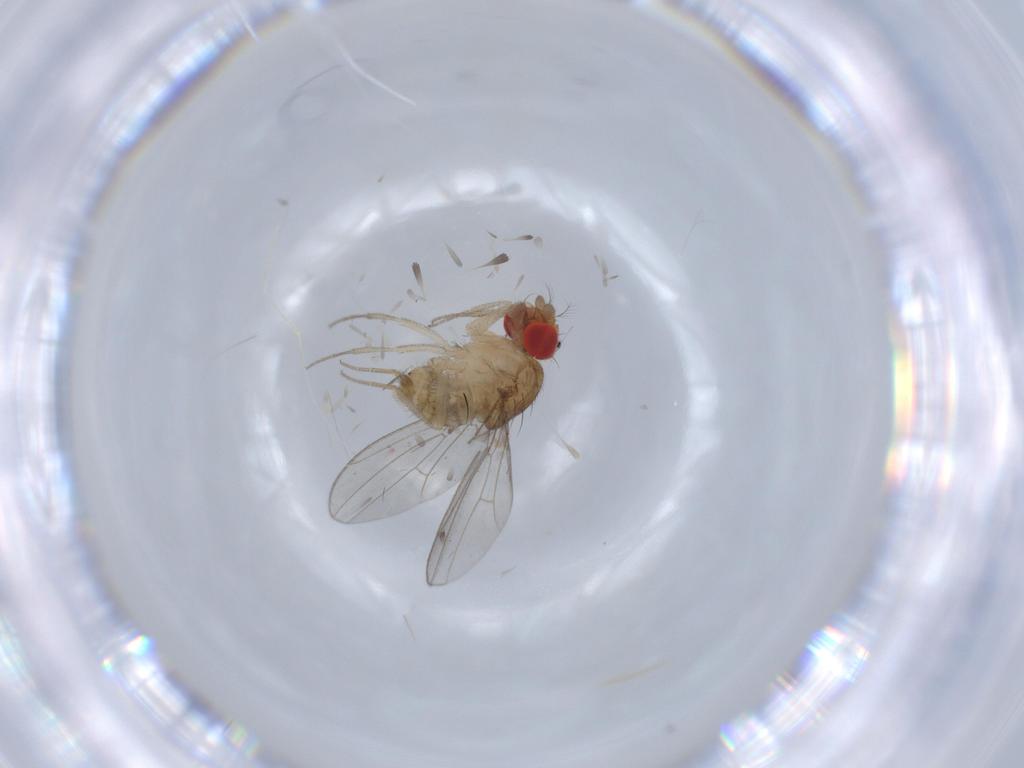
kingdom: Animalia
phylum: Arthropoda
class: Insecta
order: Diptera
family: Drosophilidae
